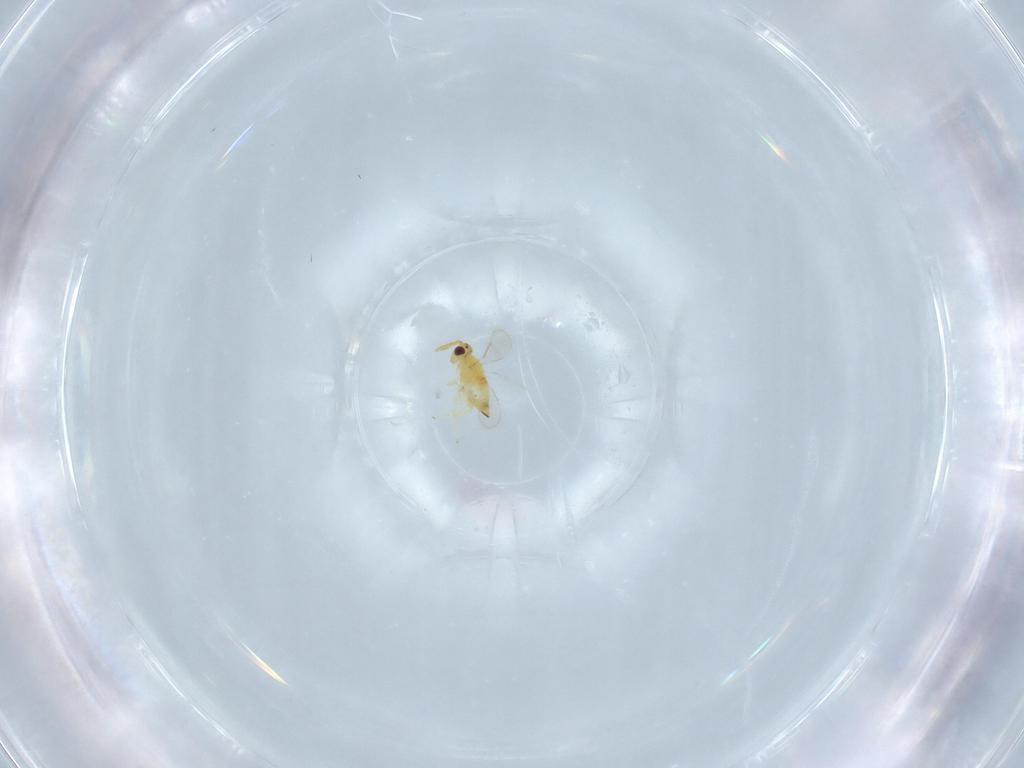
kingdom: Animalia
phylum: Arthropoda
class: Insecta
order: Hymenoptera
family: Aphelinidae
